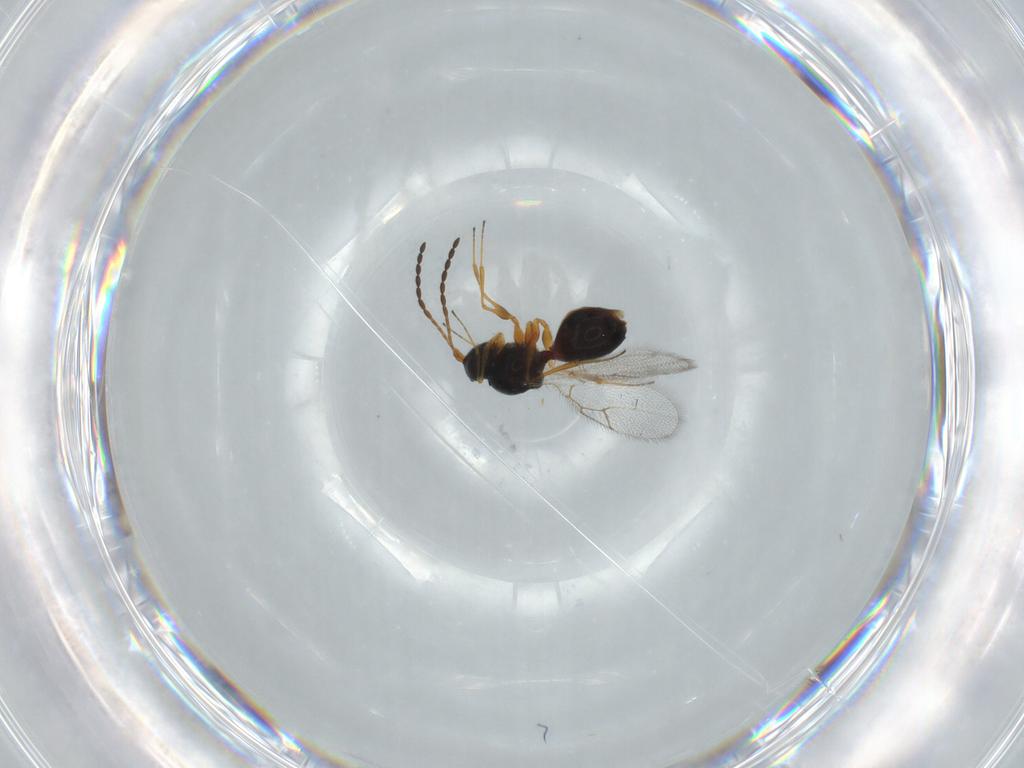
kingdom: Animalia
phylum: Arthropoda
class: Insecta
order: Hymenoptera
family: Figitidae
